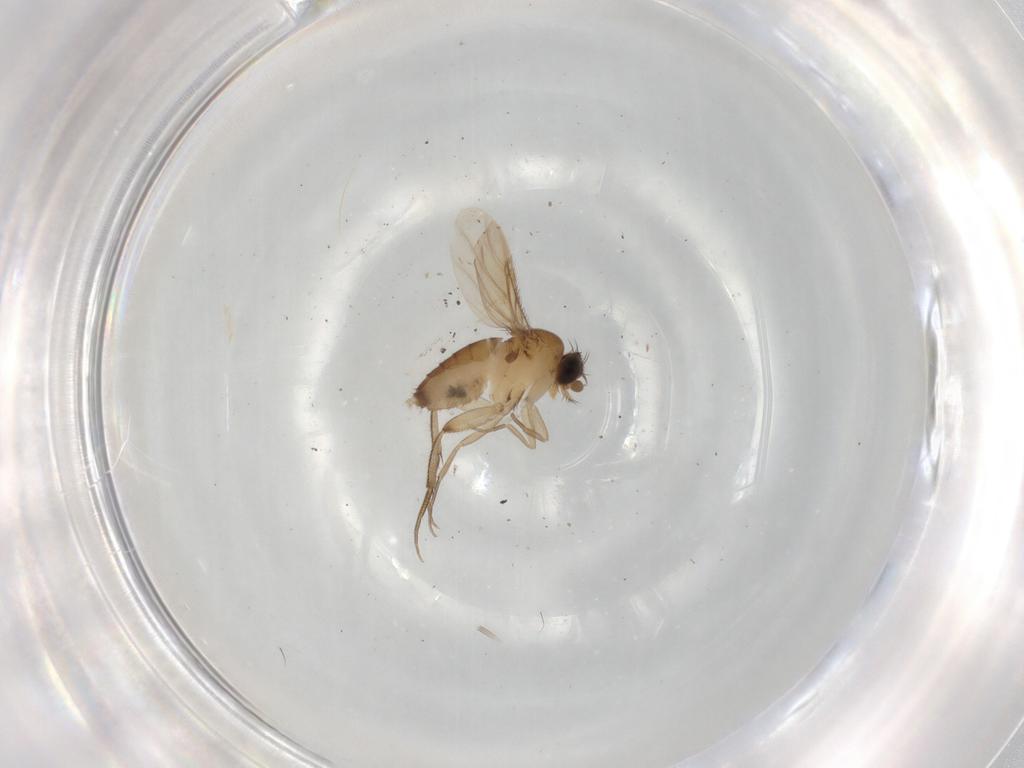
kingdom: Animalia
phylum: Arthropoda
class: Insecta
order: Diptera
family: Phoridae
